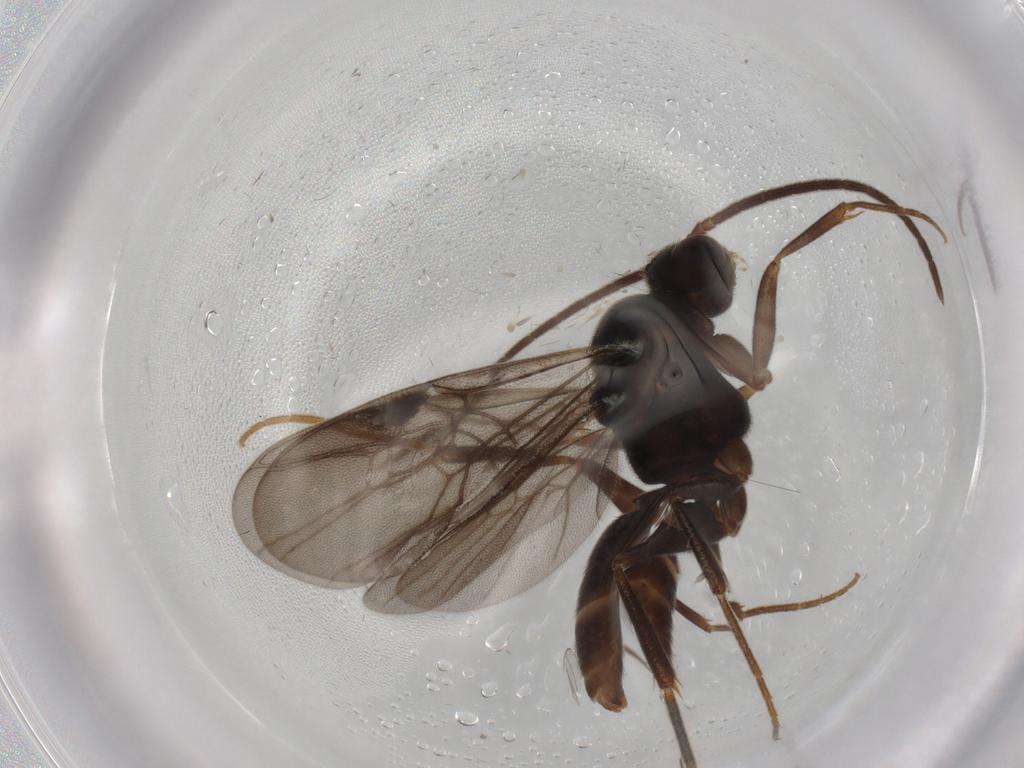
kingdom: Animalia
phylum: Arthropoda
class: Insecta
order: Hymenoptera
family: Formicidae
